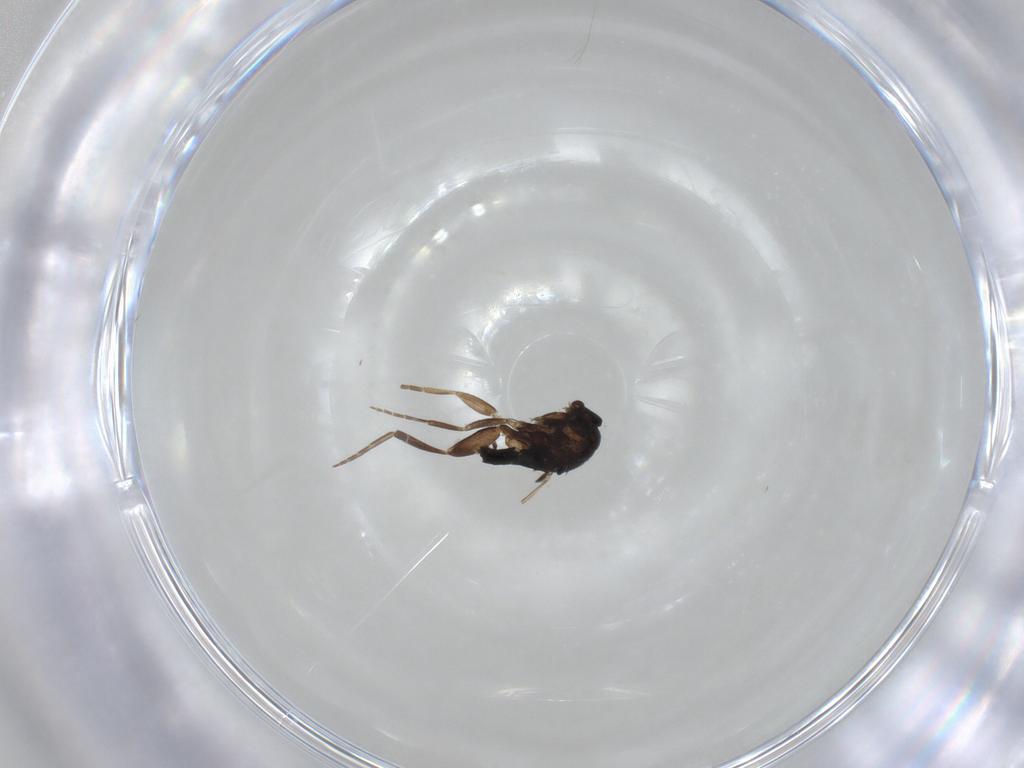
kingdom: Animalia
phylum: Arthropoda
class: Insecta
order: Diptera
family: Phoridae
